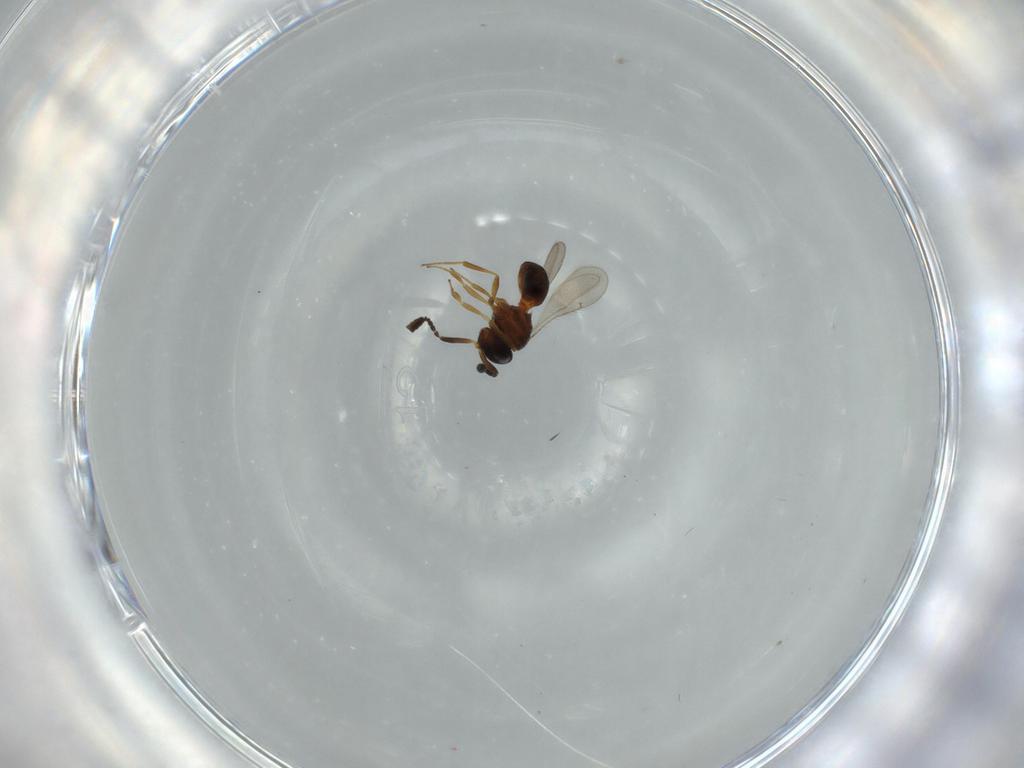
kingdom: Animalia
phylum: Arthropoda
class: Insecta
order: Hymenoptera
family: Scelionidae
